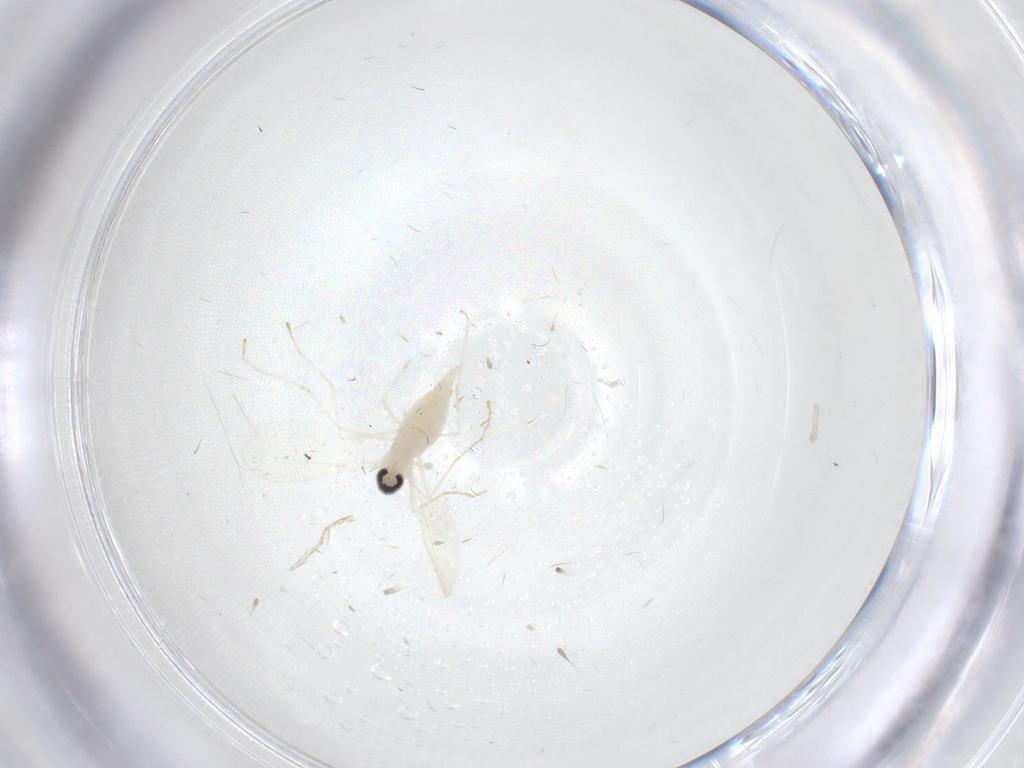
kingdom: Animalia
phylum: Arthropoda
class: Insecta
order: Diptera
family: Cecidomyiidae
